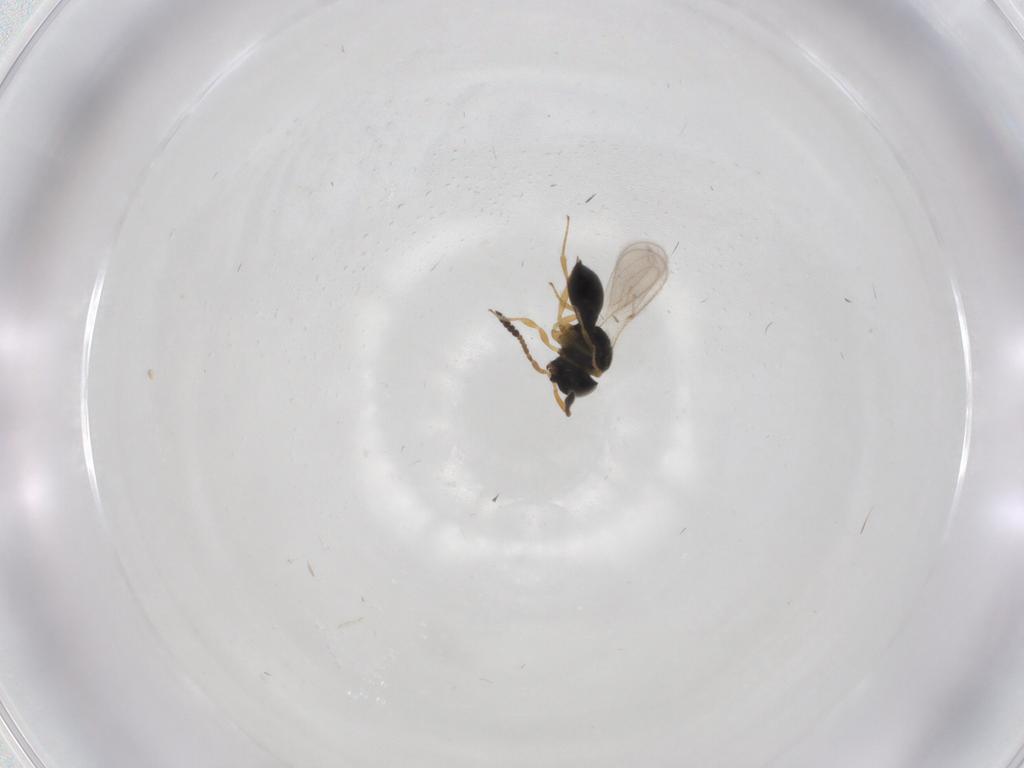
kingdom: Animalia
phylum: Arthropoda
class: Insecta
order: Hymenoptera
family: Scelionidae
